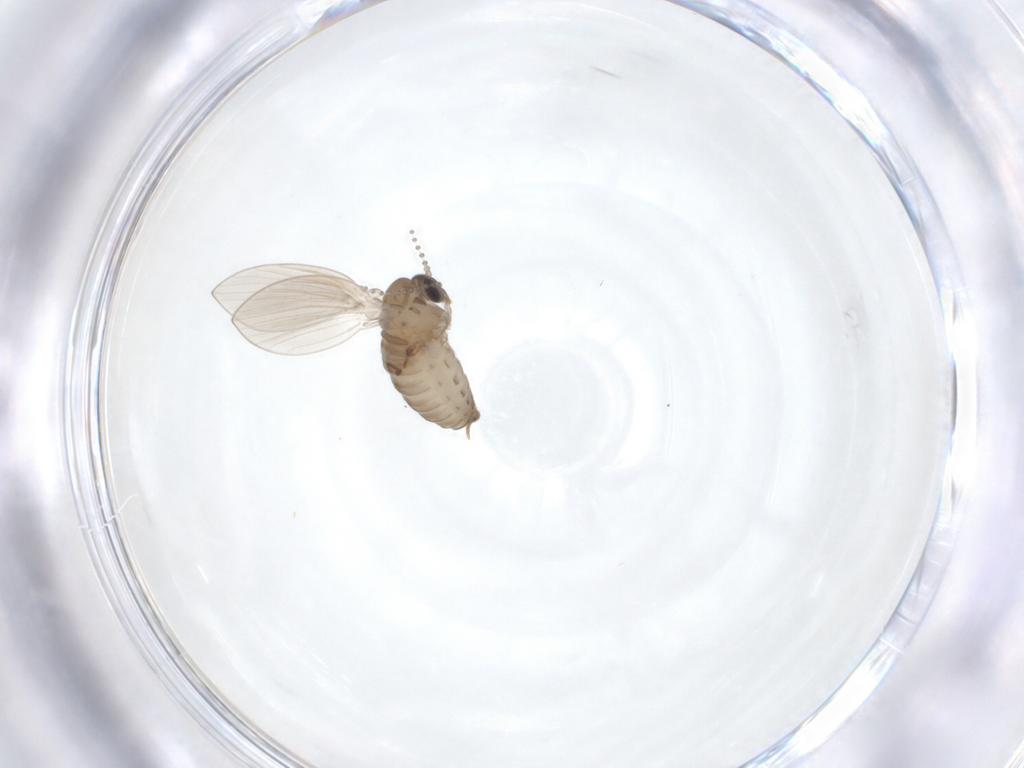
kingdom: Animalia
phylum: Arthropoda
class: Insecta
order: Diptera
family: Psychodidae
